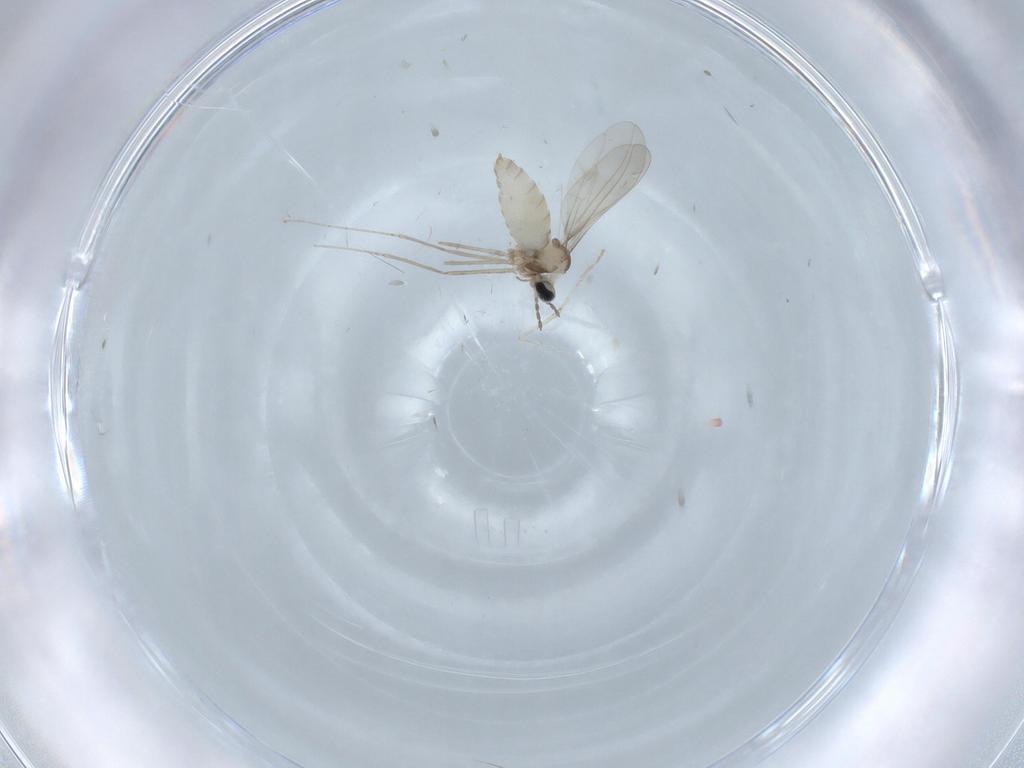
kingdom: Animalia
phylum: Arthropoda
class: Insecta
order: Diptera
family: Cecidomyiidae
